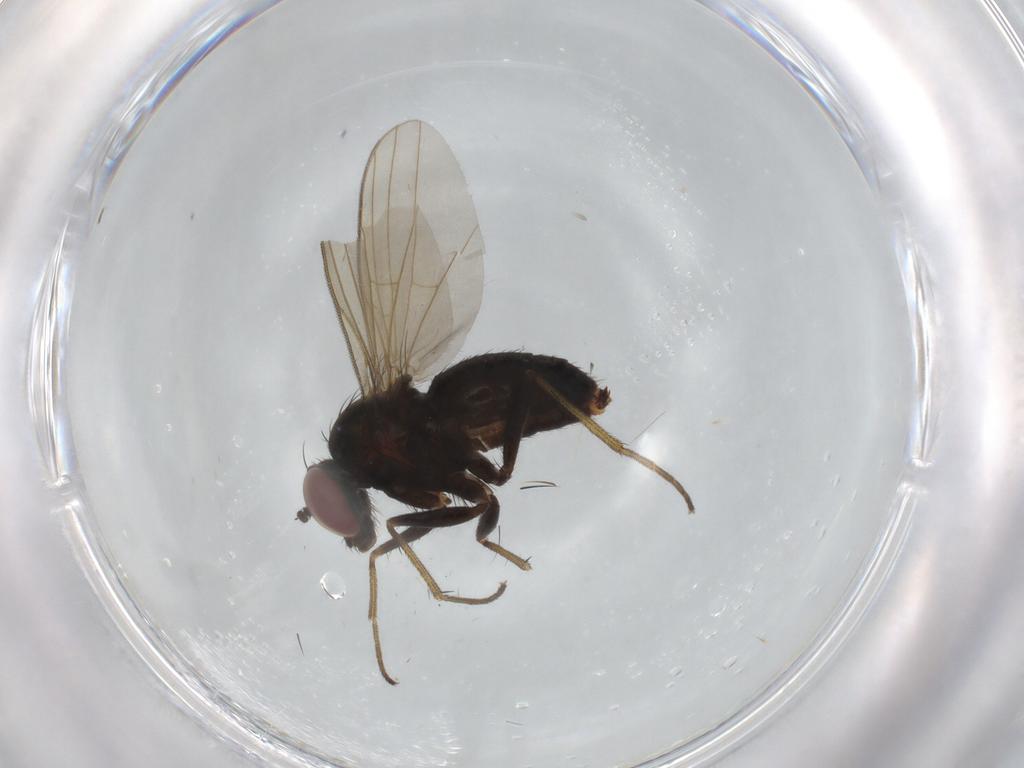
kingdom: Animalia
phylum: Arthropoda
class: Insecta
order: Diptera
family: Dolichopodidae
